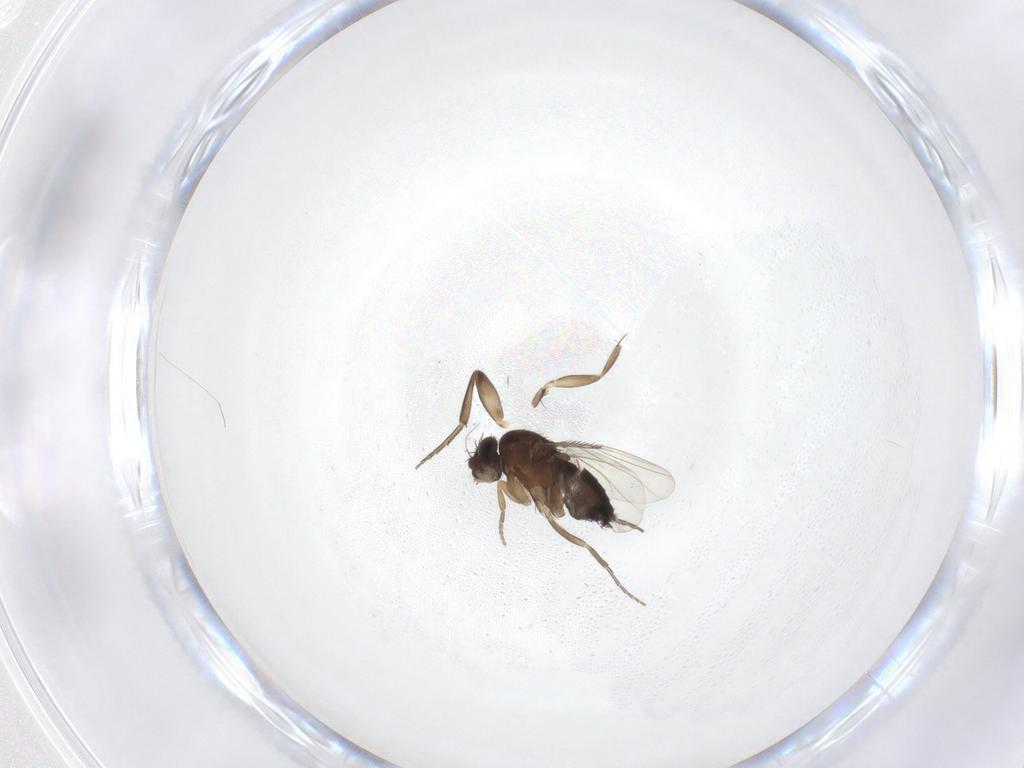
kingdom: Animalia
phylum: Arthropoda
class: Insecta
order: Diptera
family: Phoridae
